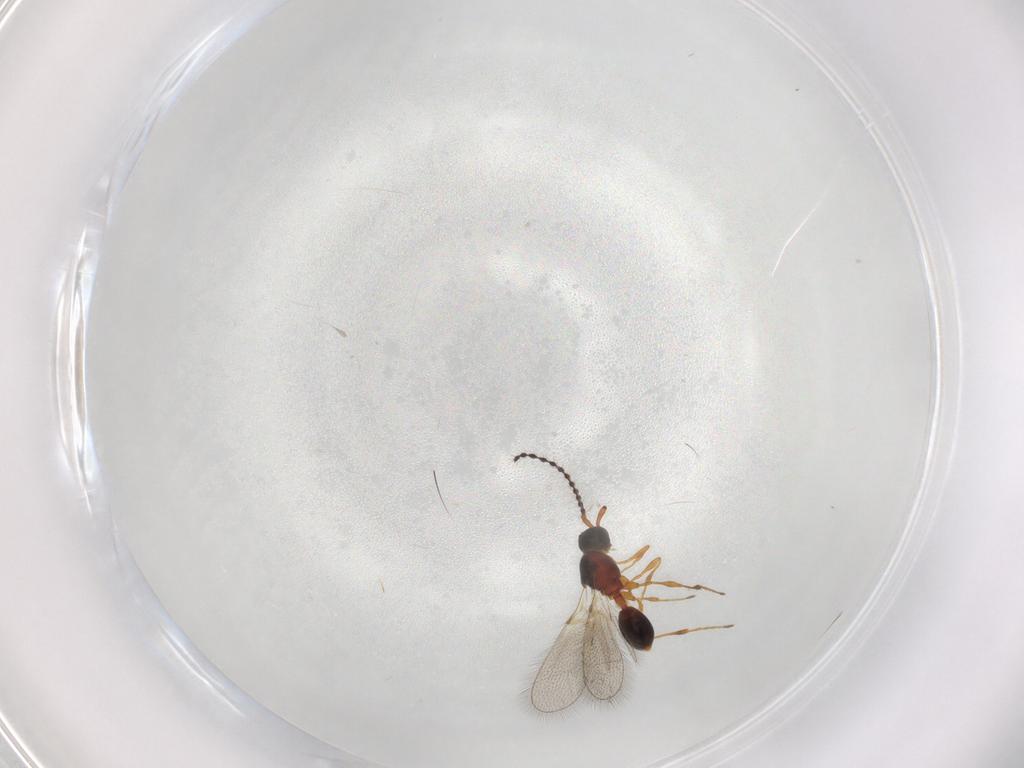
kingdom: Animalia
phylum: Arthropoda
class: Insecta
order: Hymenoptera
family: Diapriidae
